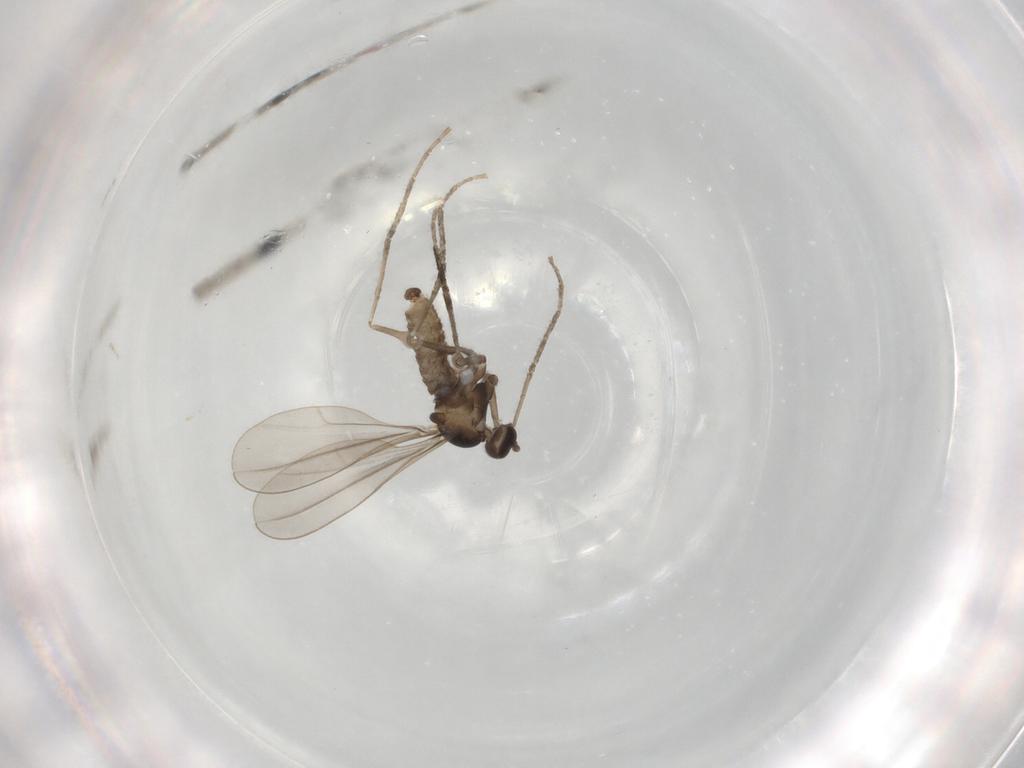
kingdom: Animalia
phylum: Arthropoda
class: Insecta
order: Diptera
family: Cecidomyiidae
